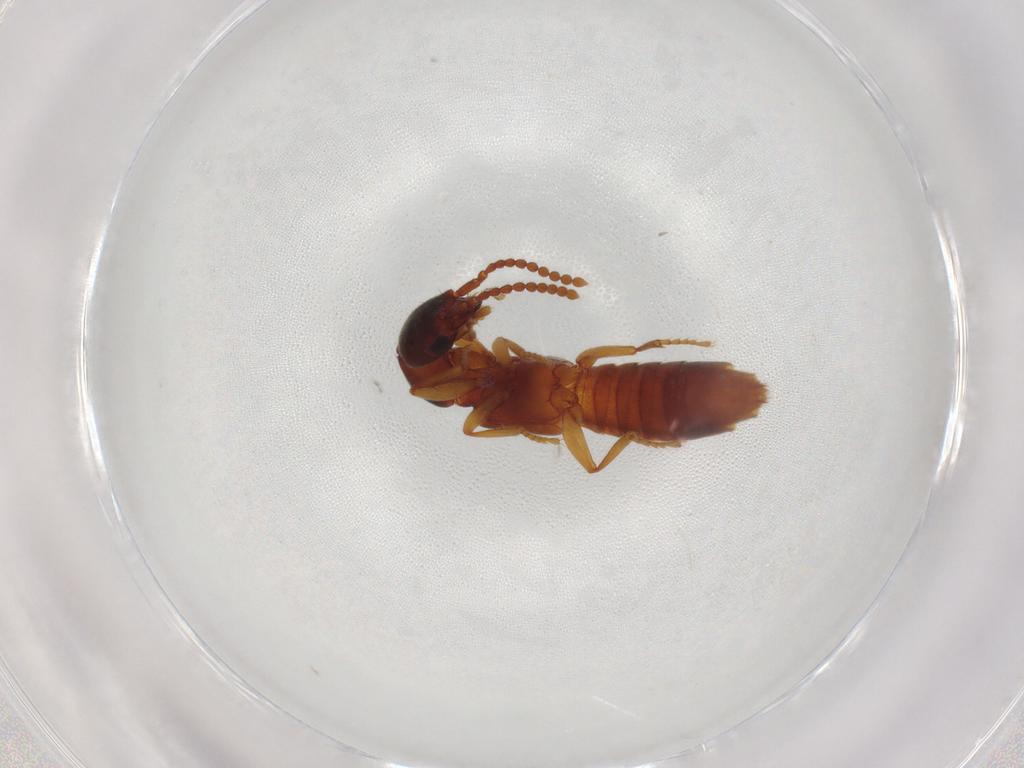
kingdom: Animalia
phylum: Arthropoda
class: Insecta
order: Coleoptera
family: Staphylinidae
